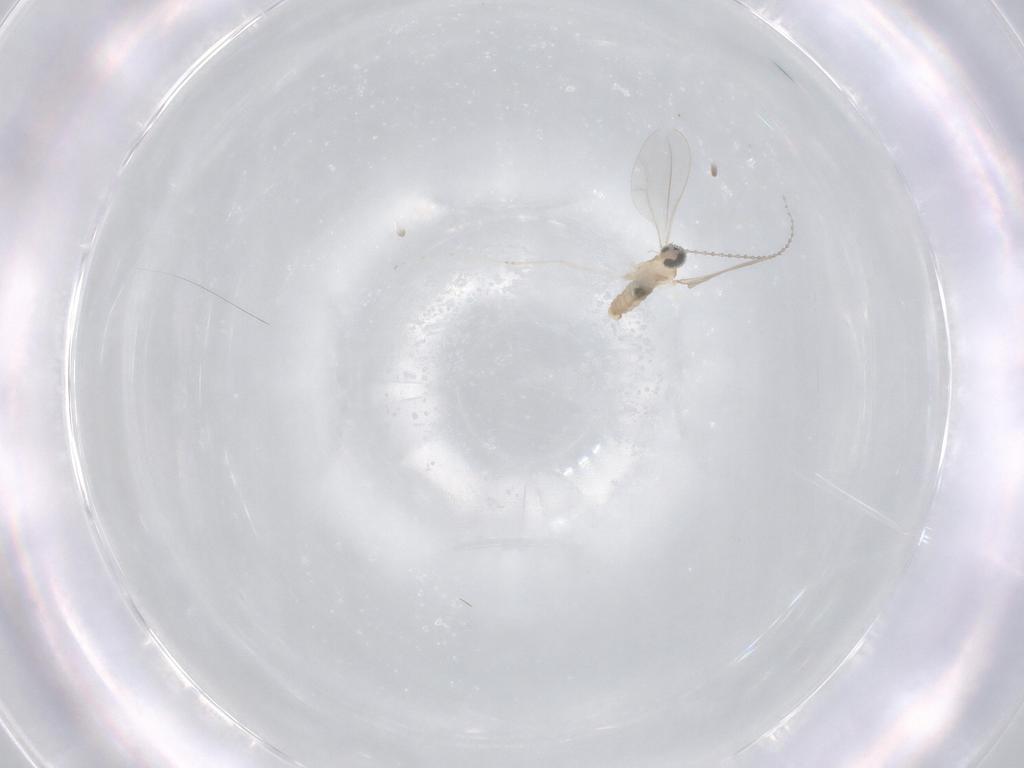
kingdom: Animalia
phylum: Arthropoda
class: Insecta
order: Diptera
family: Cecidomyiidae
